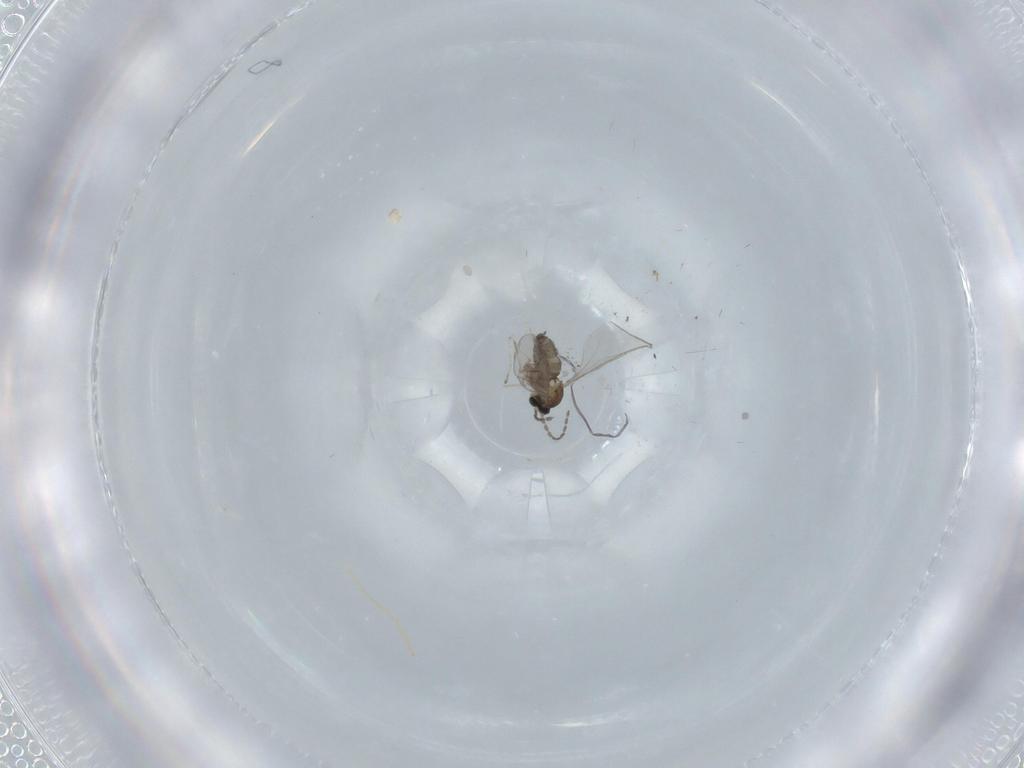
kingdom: Animalia
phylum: Arthropoda
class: Insecta
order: Diptera
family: Cecidomyiidae
